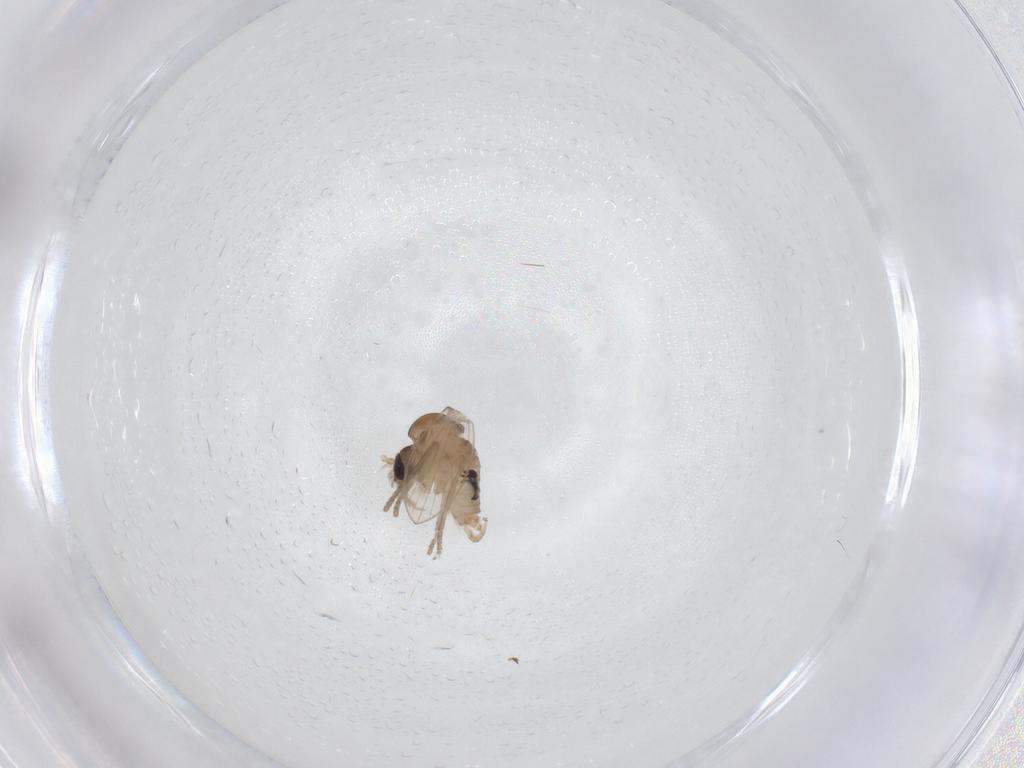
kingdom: Animalia
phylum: Arthropoda
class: Insecta
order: Diptera
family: Psychodidae
